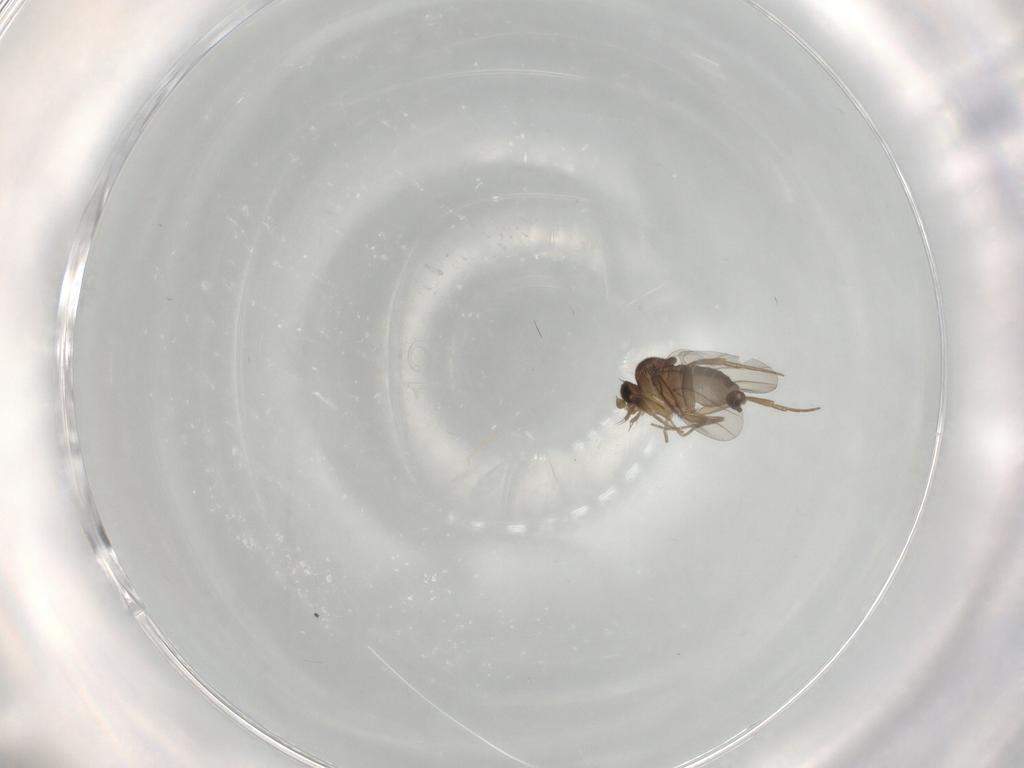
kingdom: Animalia
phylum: Arthropoda
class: Insecta
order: Diptera
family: Phoridae
